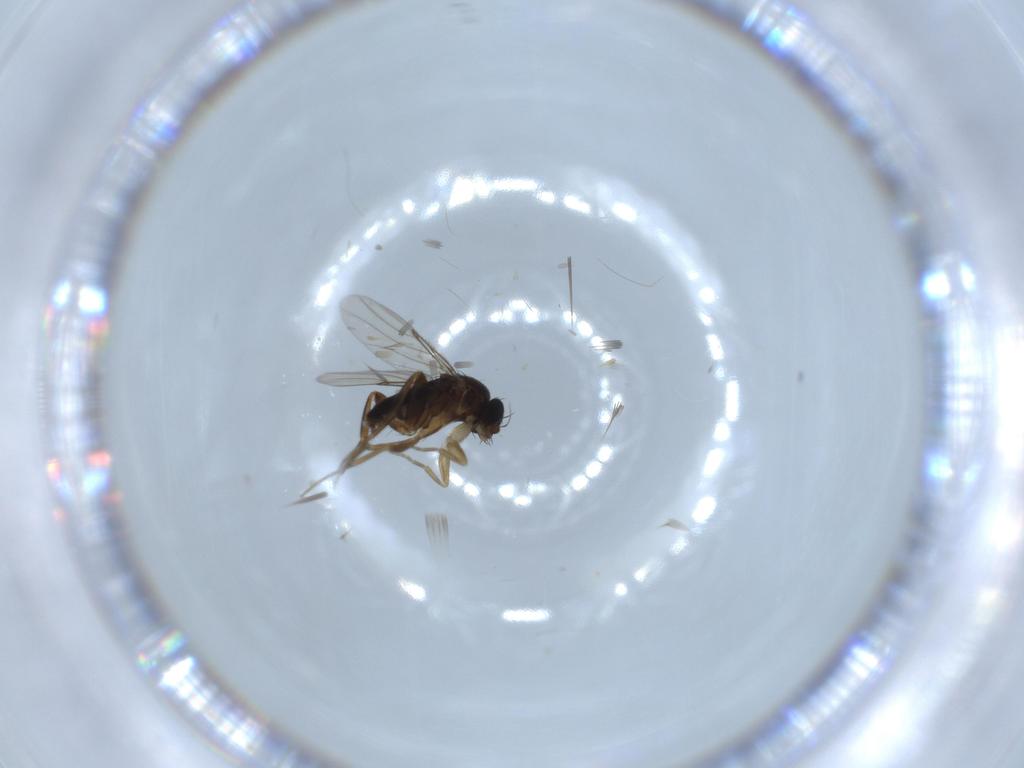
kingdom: Animalia
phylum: Arthropoda
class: Insecta
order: Diptera
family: Phoridae
